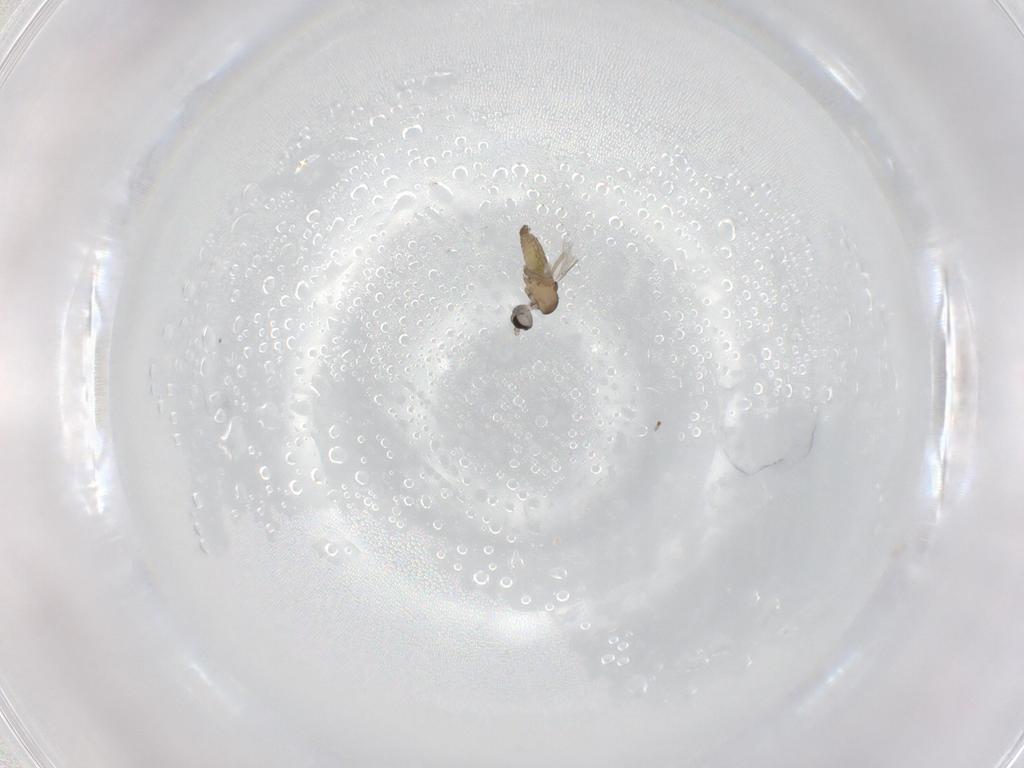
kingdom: Animalia
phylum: Arthropoda
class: Insecta
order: Diptera
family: Cecidomyiidae
